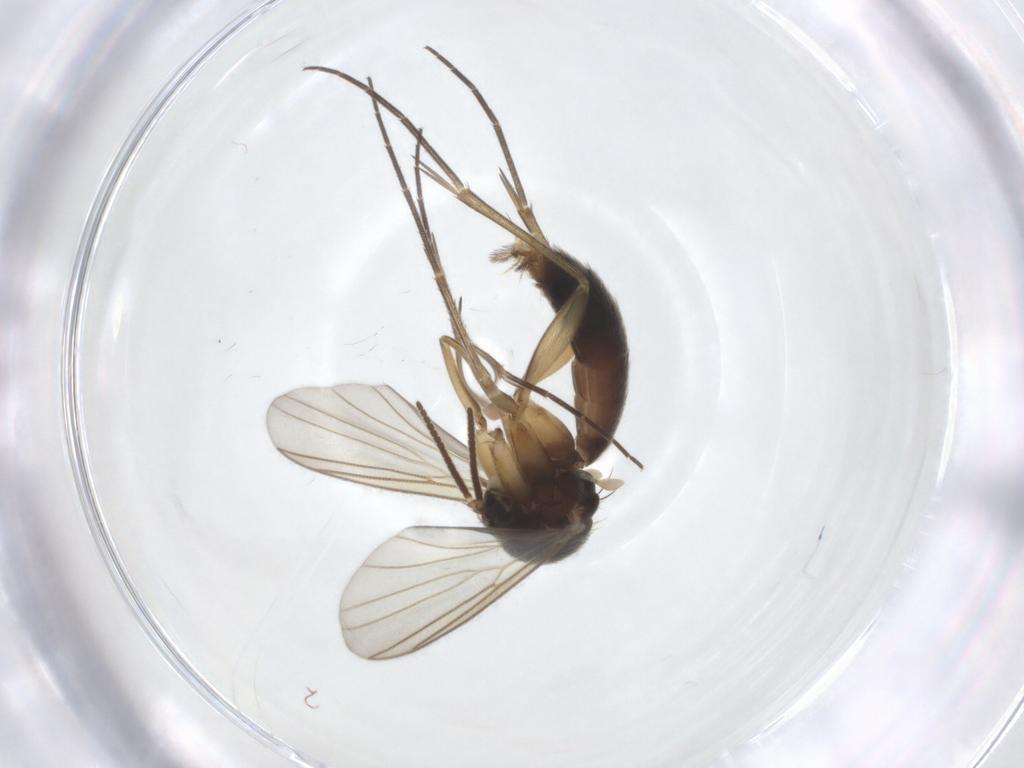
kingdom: Animalia
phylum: Arthropoda
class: Insecta
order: Diptera
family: Mycetophilidae
